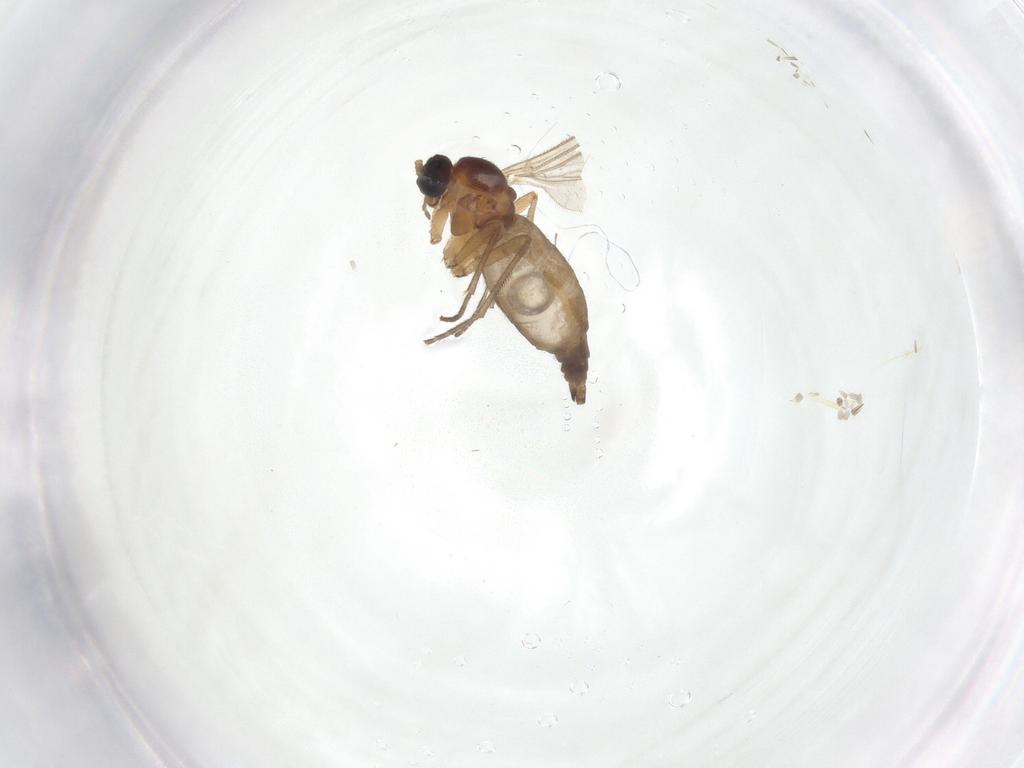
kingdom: Animalia
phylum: Arthropoda
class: Insecta
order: Diptera
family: Sciaridae
